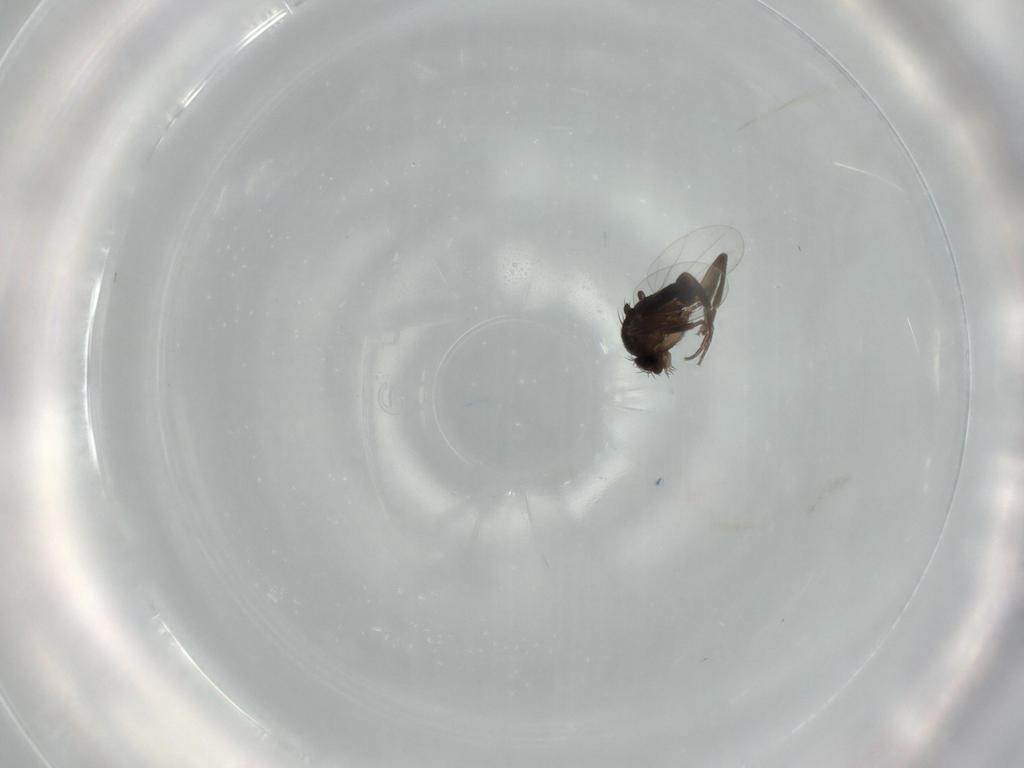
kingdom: Animalia
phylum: Arthropoda
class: Insecta
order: Diptera
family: Phoridae
